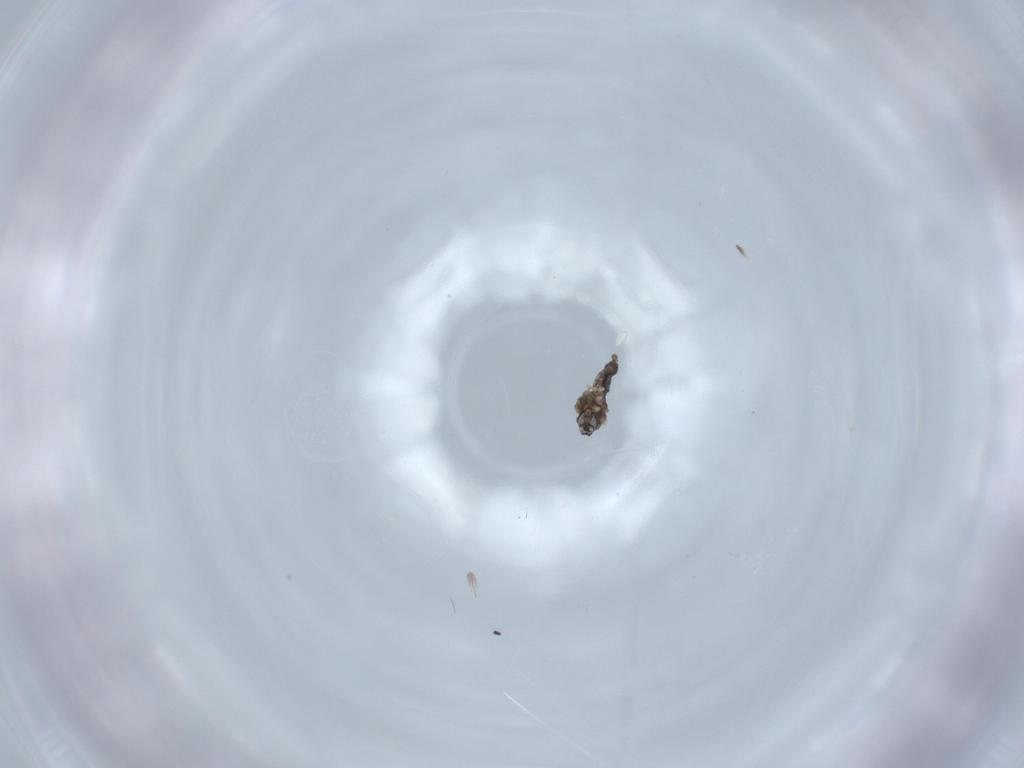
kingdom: Animalia
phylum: Arthropoda
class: Insecta
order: Diptera
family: Cecidomyiidae
